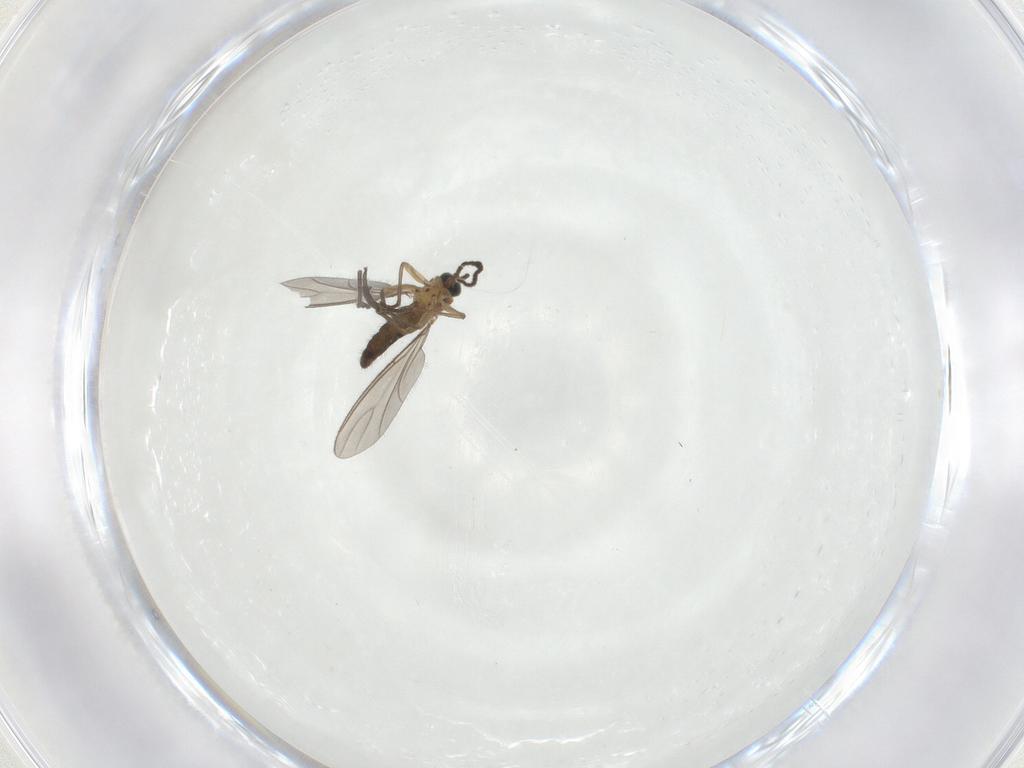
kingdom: Animalia
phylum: Arthropoda
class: Insecta
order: Diptera
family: Sciaridae
